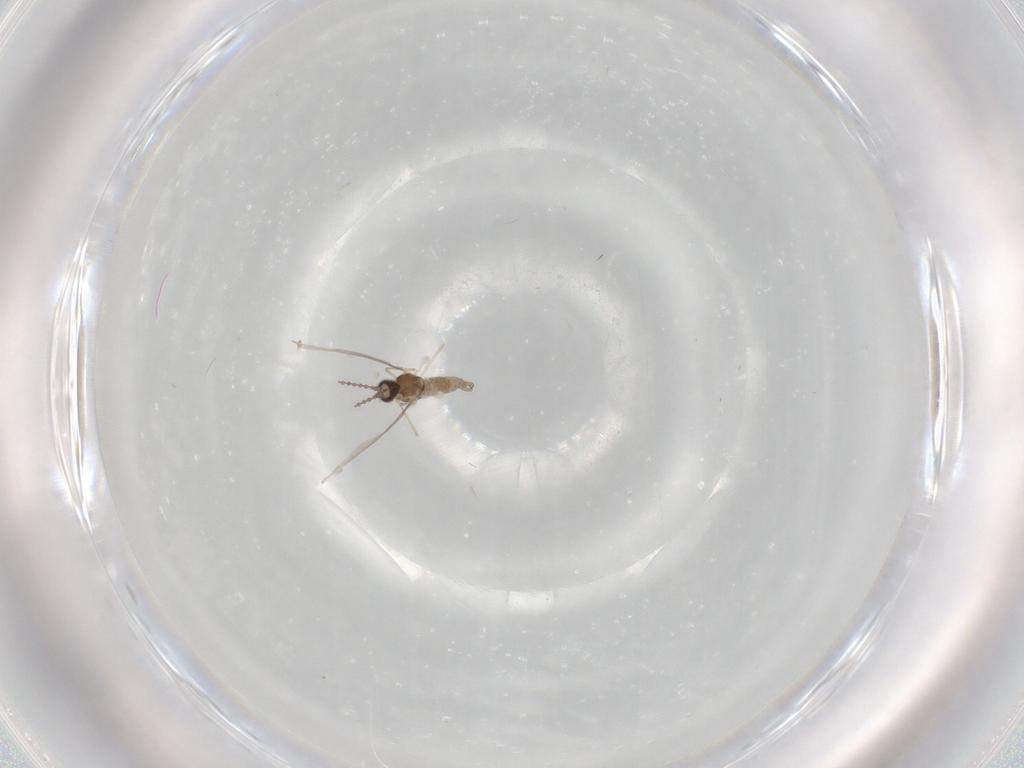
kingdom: Animalia
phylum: Arthropoda
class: Insecta
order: Diptera
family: Cecidomyiidae
